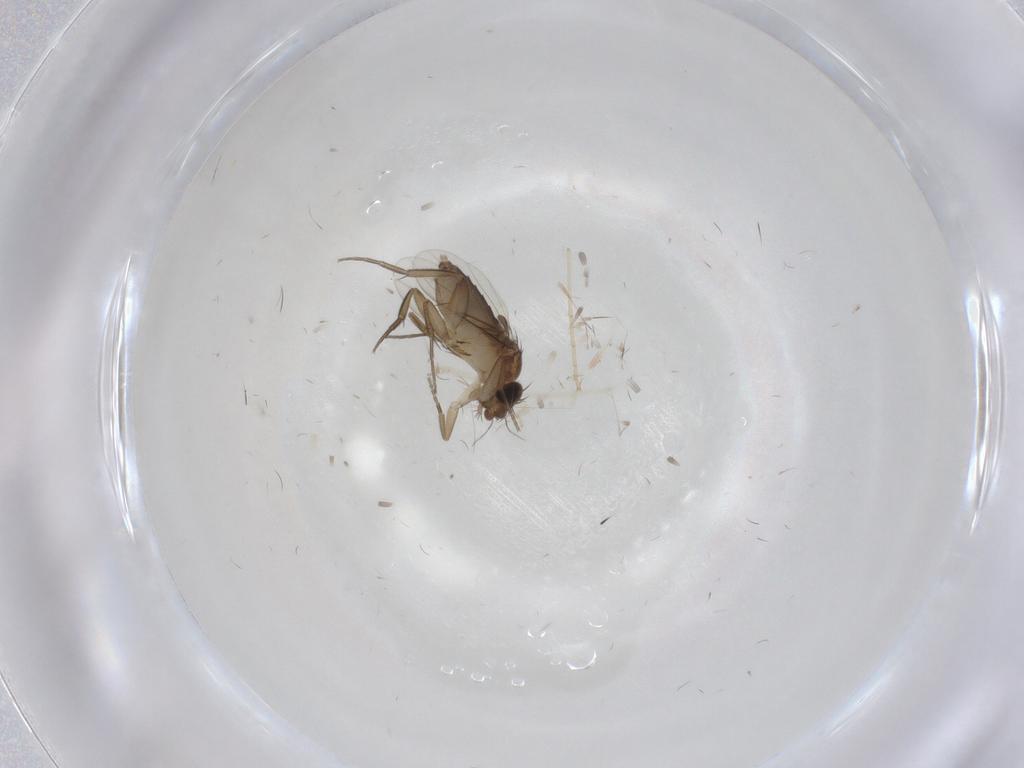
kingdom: Animalia
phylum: Arthropoda
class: Insecta
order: Diptera
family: Phoridae
